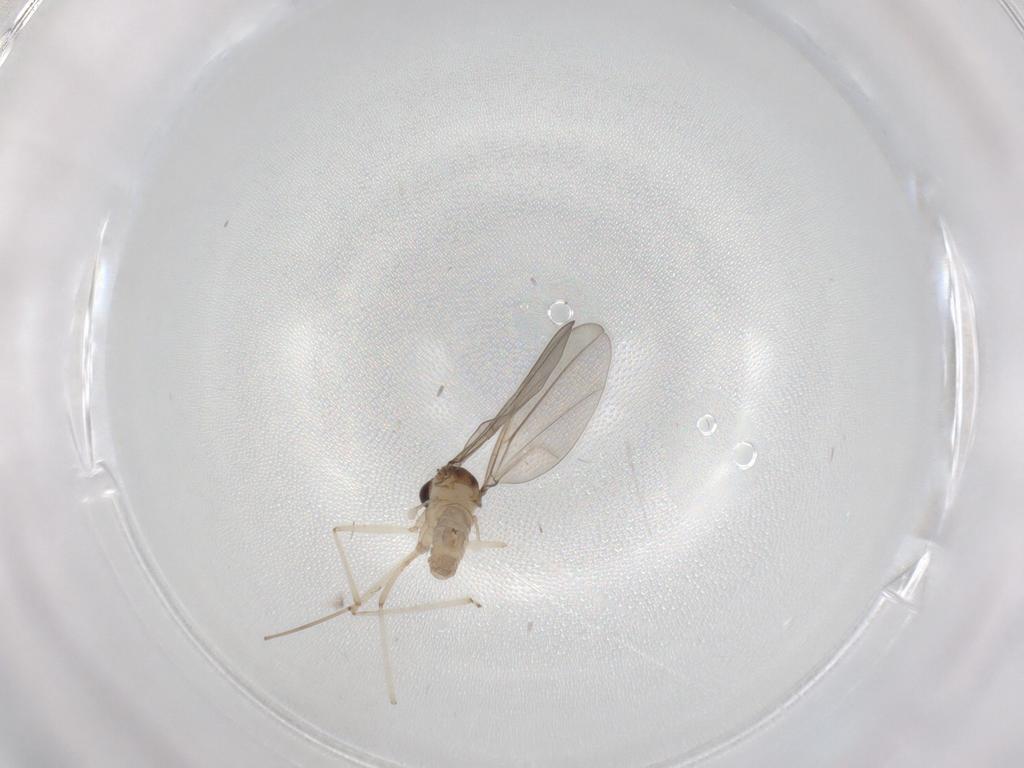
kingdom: Animalia
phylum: Arthropoda
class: Insecta
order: Diptera
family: Cecidomyiidae
